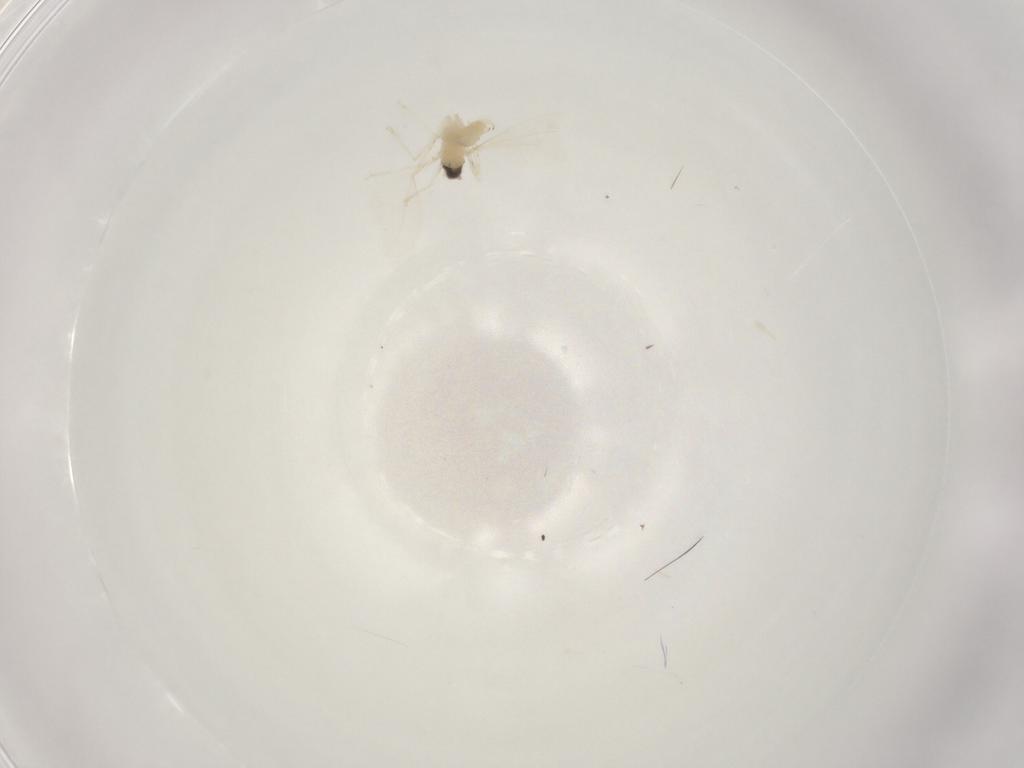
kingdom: Animalia
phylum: Arthropoda
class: Insecta
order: Diptera
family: Cecidomyiidae
